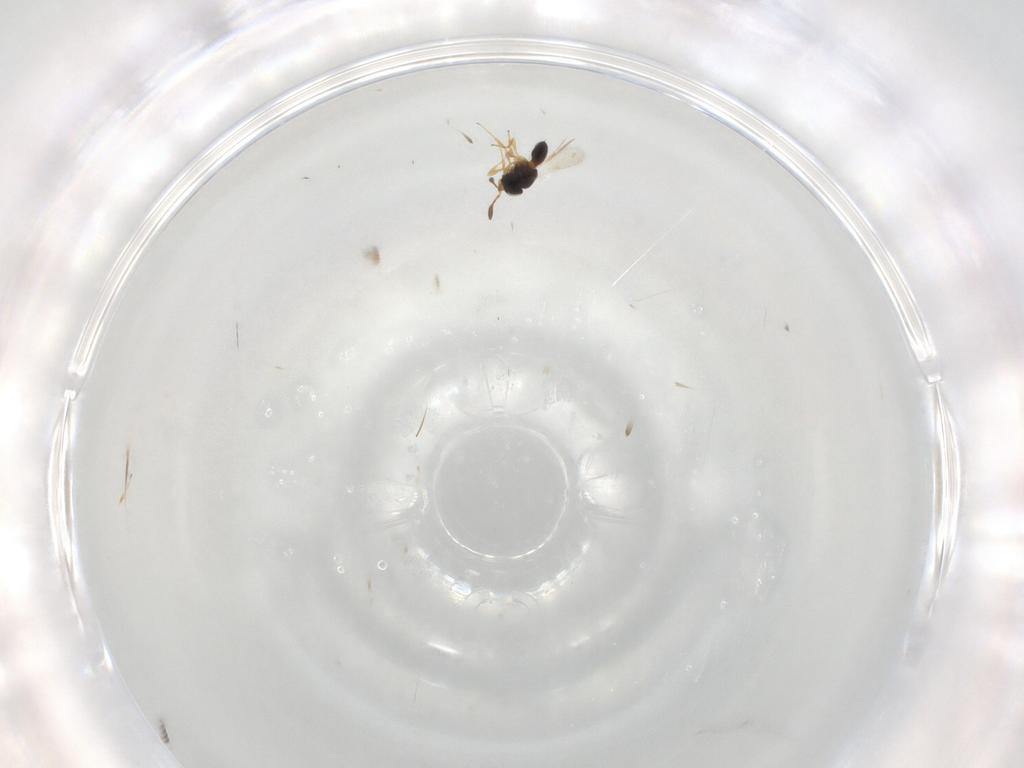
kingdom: Animalia
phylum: Arthropoda
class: Insecta
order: Hymenoptera
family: Scelionidae
